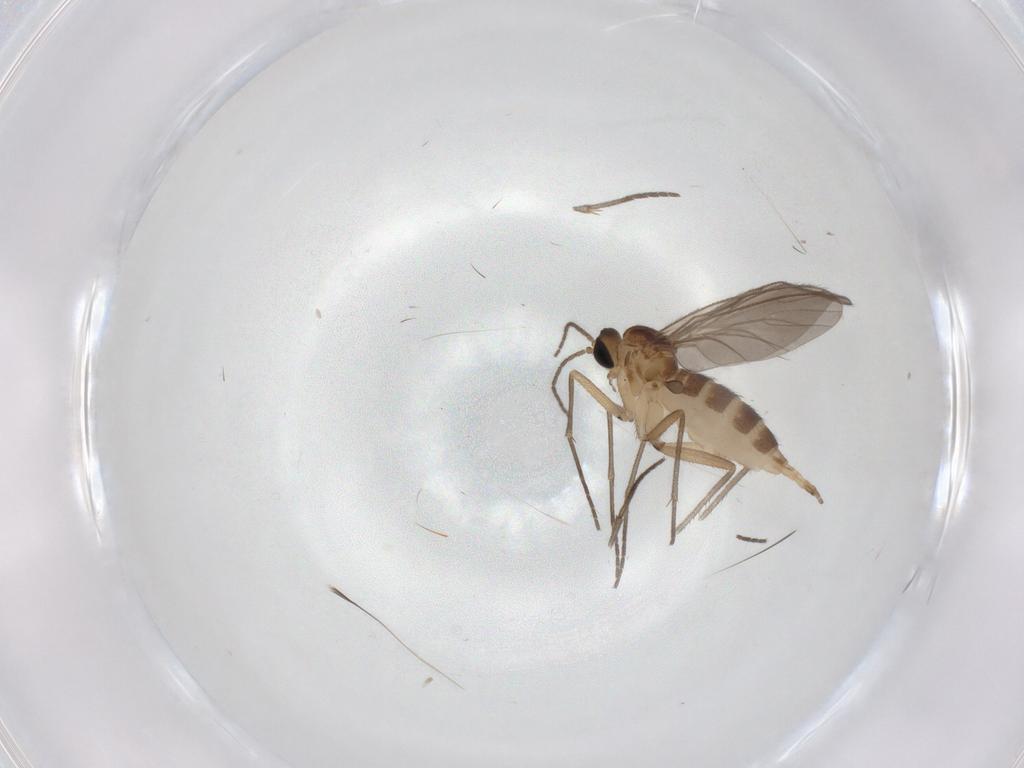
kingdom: Animalia
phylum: Arthropoda
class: Insecta
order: Diptera
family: Sciaridae
